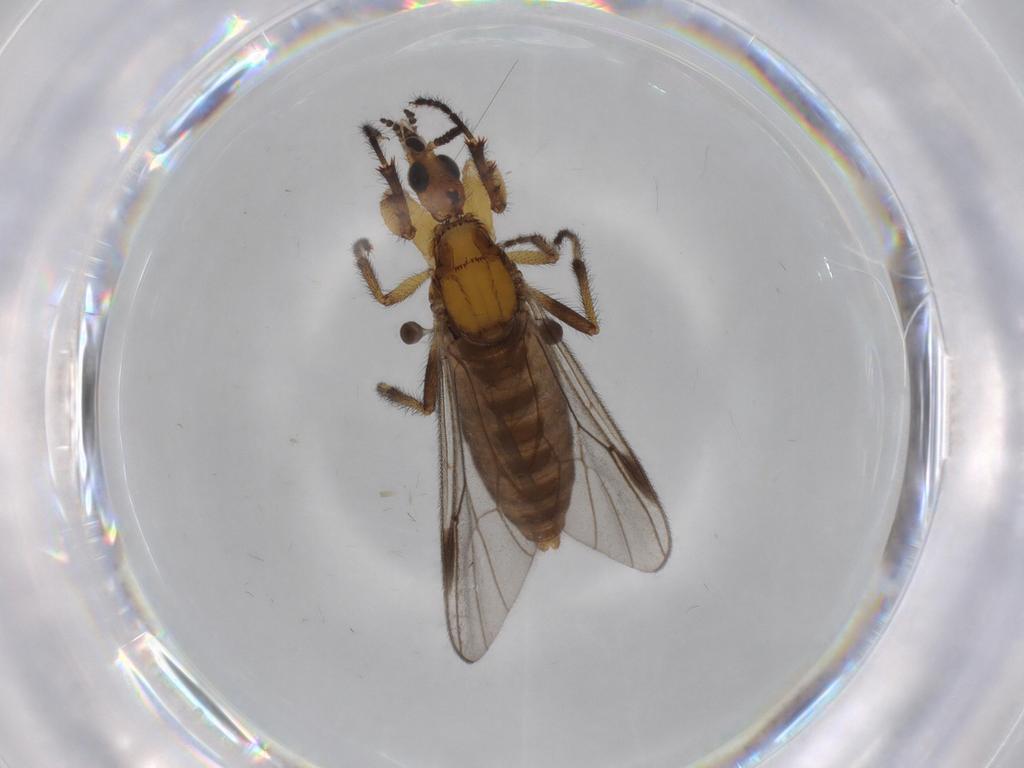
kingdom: Animalia
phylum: Arthropoda
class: Insecta
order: Diptera
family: Bibionidae
